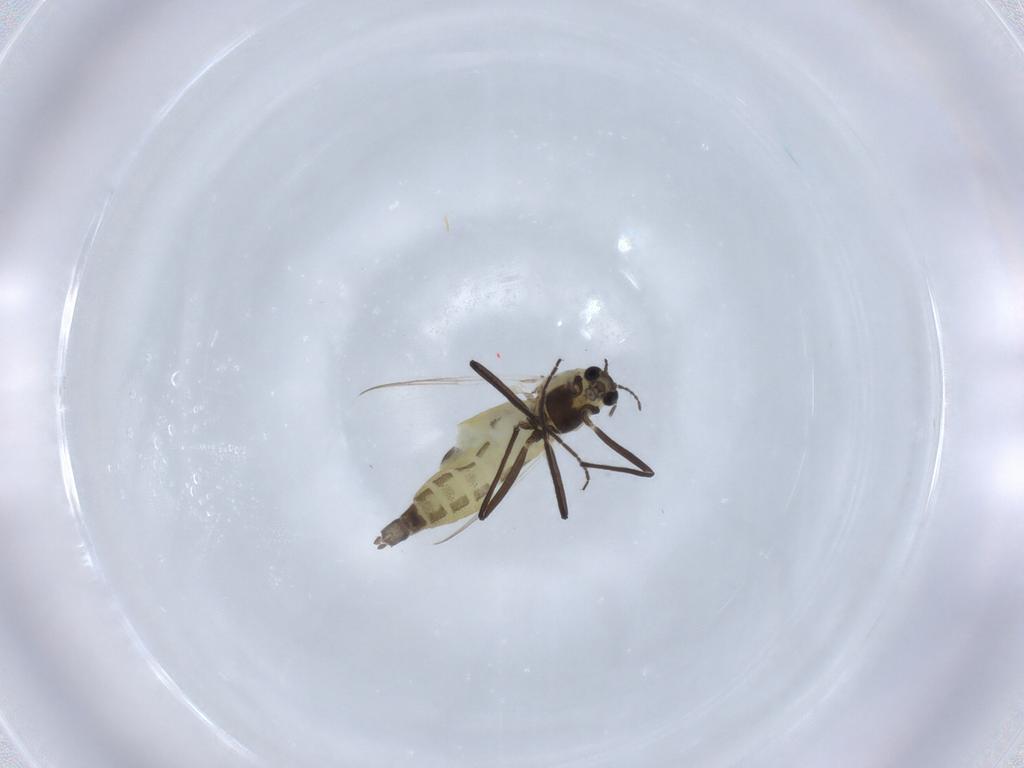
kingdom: Animalia
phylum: Arthropoda
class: Insecta
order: Diptera
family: Chironomidae
